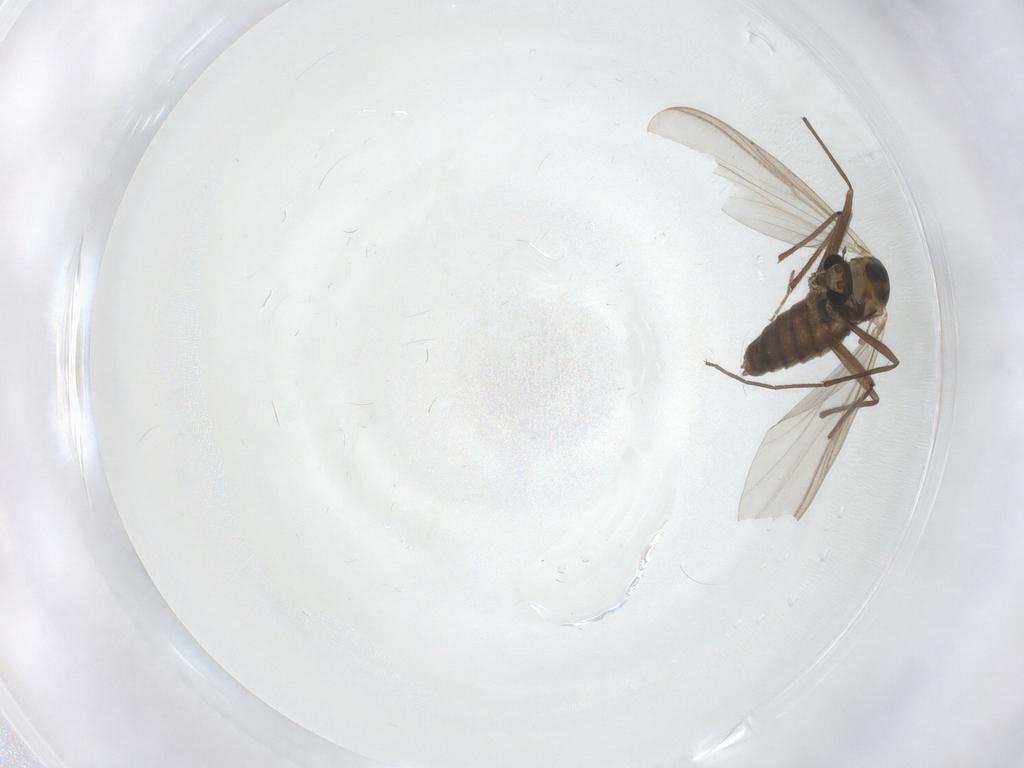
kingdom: Animalia
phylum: Arthropoda
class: Insecta
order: Diptera
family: Chironomidae
